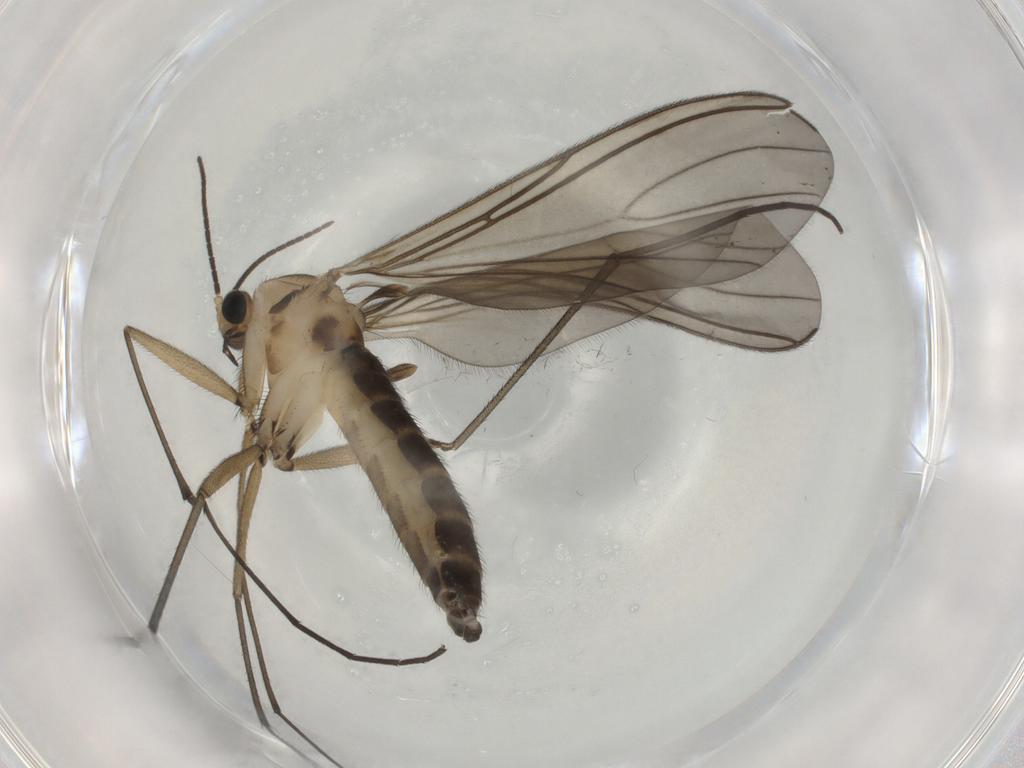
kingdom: Animalia
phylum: Arthropoda
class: Insecta
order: Diptera
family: Sciaridae
